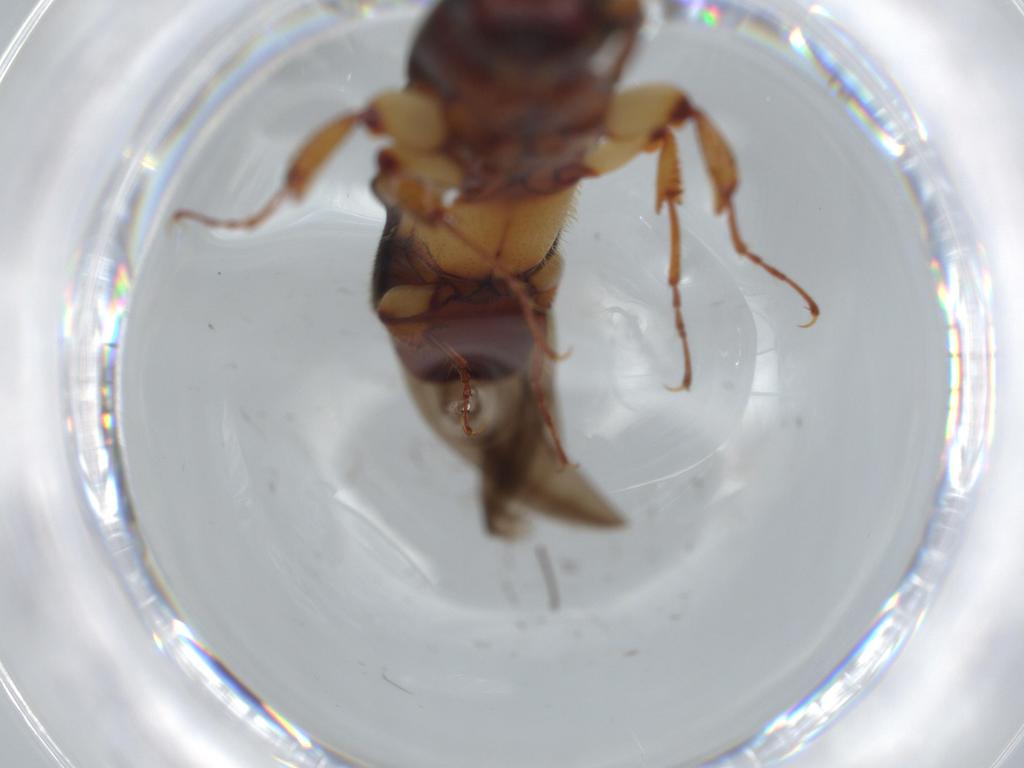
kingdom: Animalia
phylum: Arthropoda
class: Insecta
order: Coleoptera
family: Curculionidae
